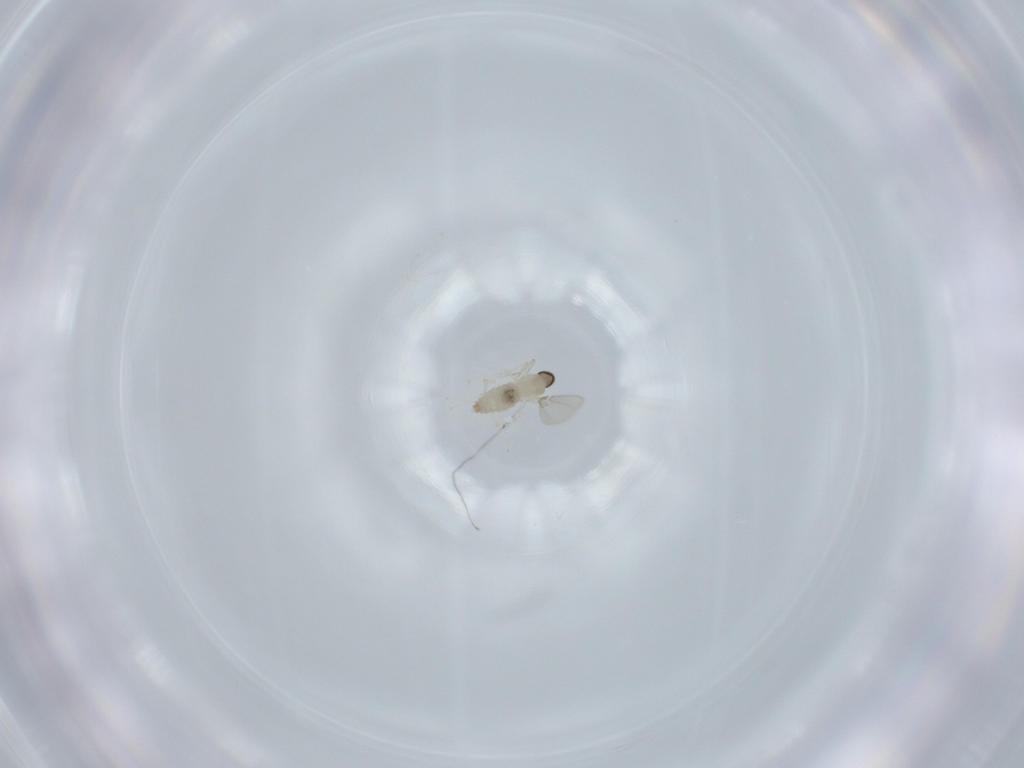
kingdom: Animalia
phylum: Arthropoda
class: Insecta
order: Diptera
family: Cecidomyiidae
